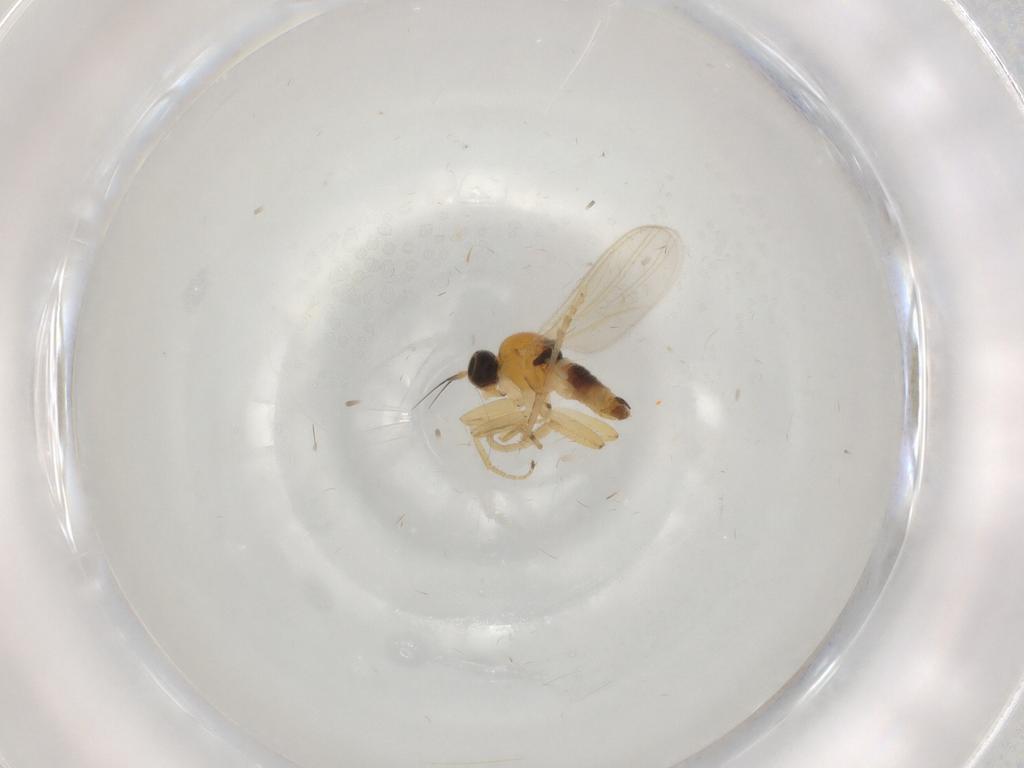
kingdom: Animalia
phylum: Arthropoda
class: Insecta
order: Diptera
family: Hybotidae
